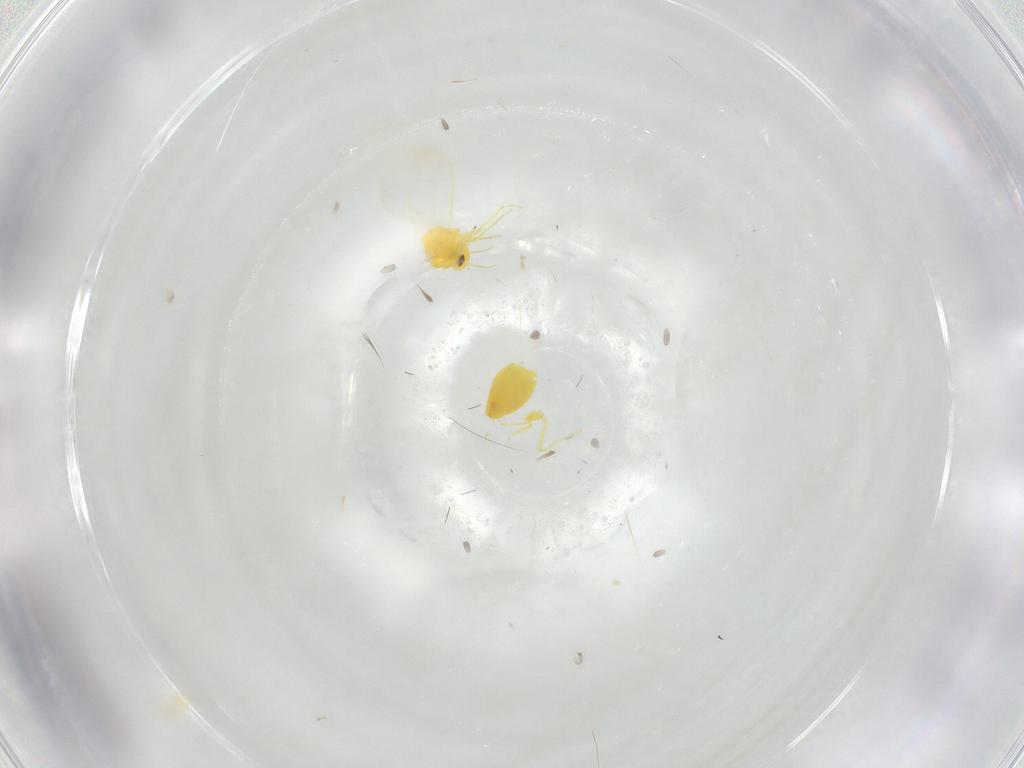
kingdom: Animalia
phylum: Arthropoda
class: Insecta
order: Hemiptera
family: Aleyrodidae
